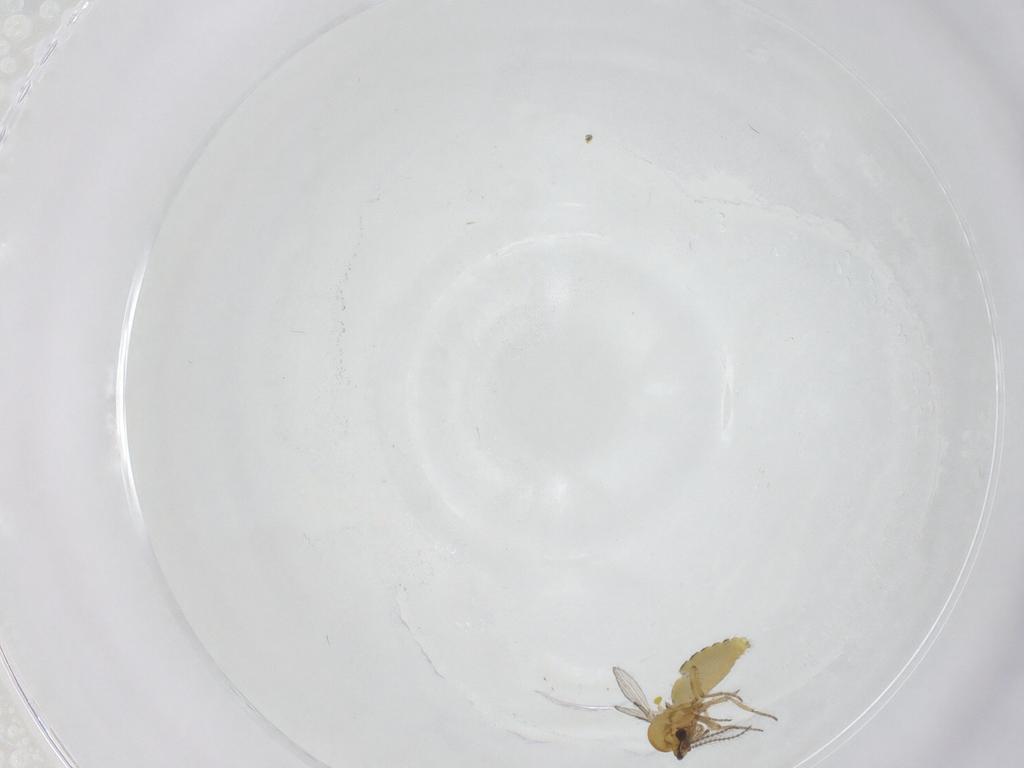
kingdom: Animalia
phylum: Arthropoda
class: Insecta
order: Diptera
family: Ceratopogonidae
